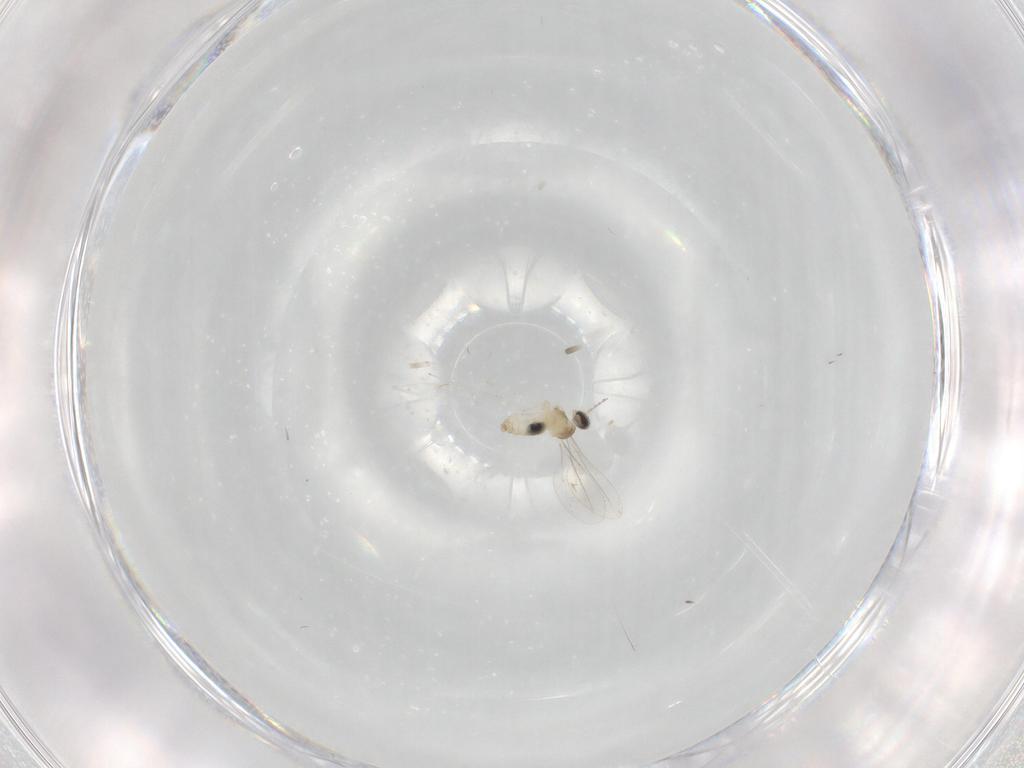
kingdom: Animalia
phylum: Arthropoda
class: Insecta
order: Diptera
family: Cecidomyiidae
